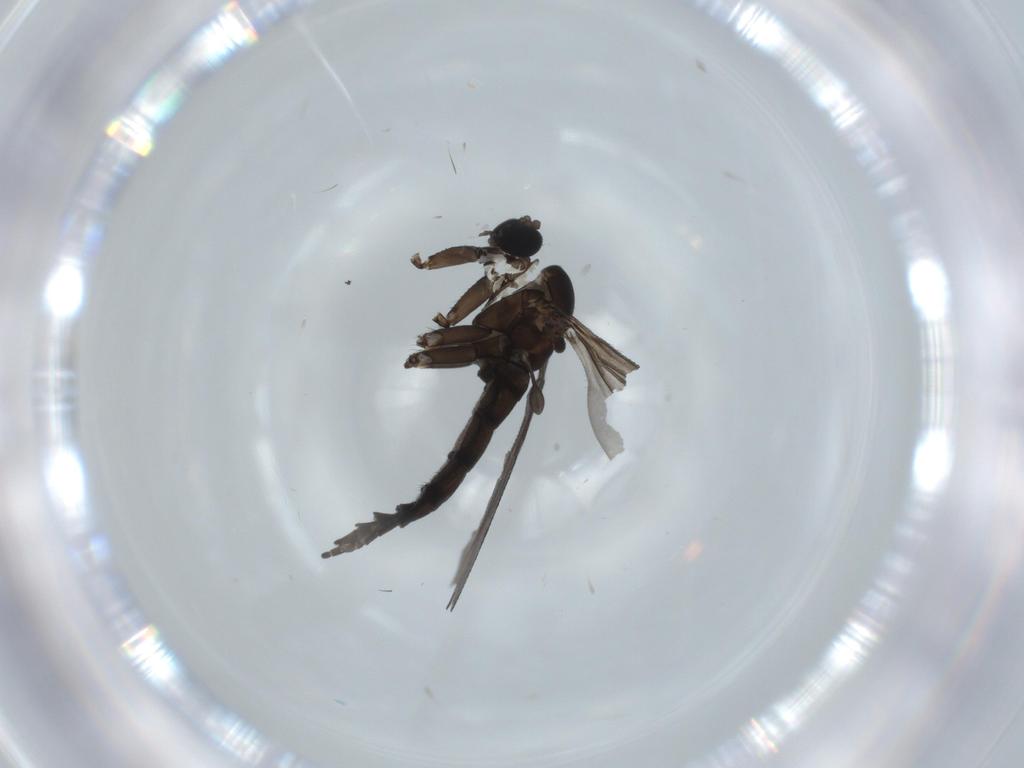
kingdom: Animalia
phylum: Arthropoda
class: Insecta
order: Diptera
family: Sciaridae
